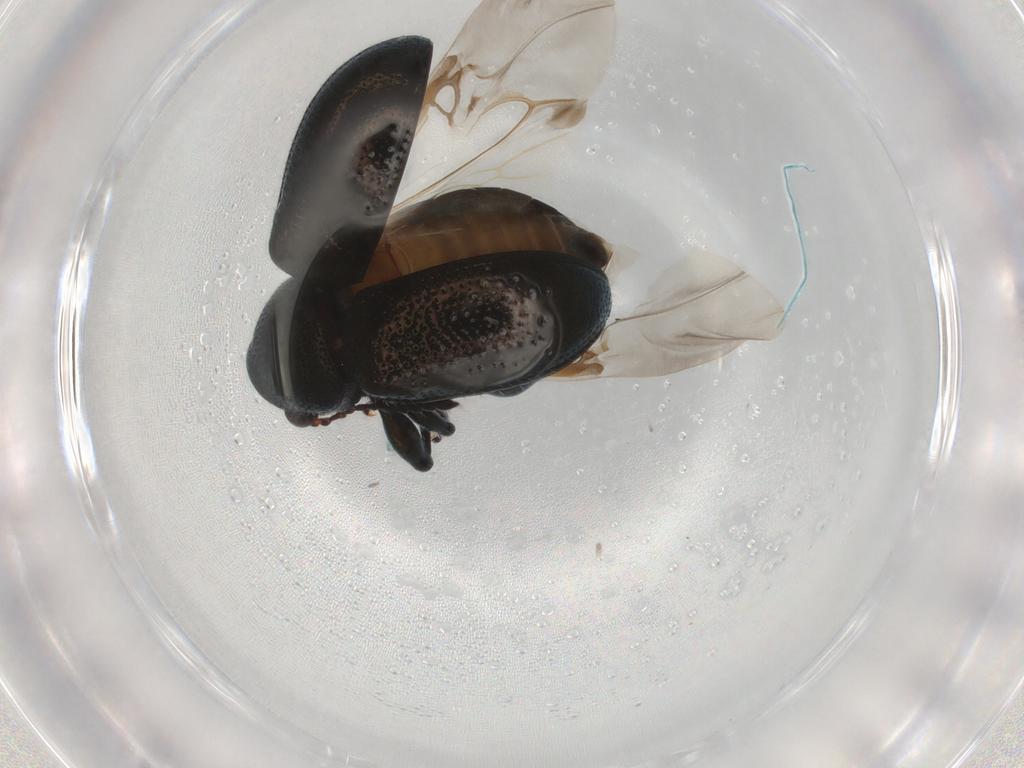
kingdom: Animalia
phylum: Arthropoda
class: Insecta
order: Coleoptera
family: Chrysomelidae
